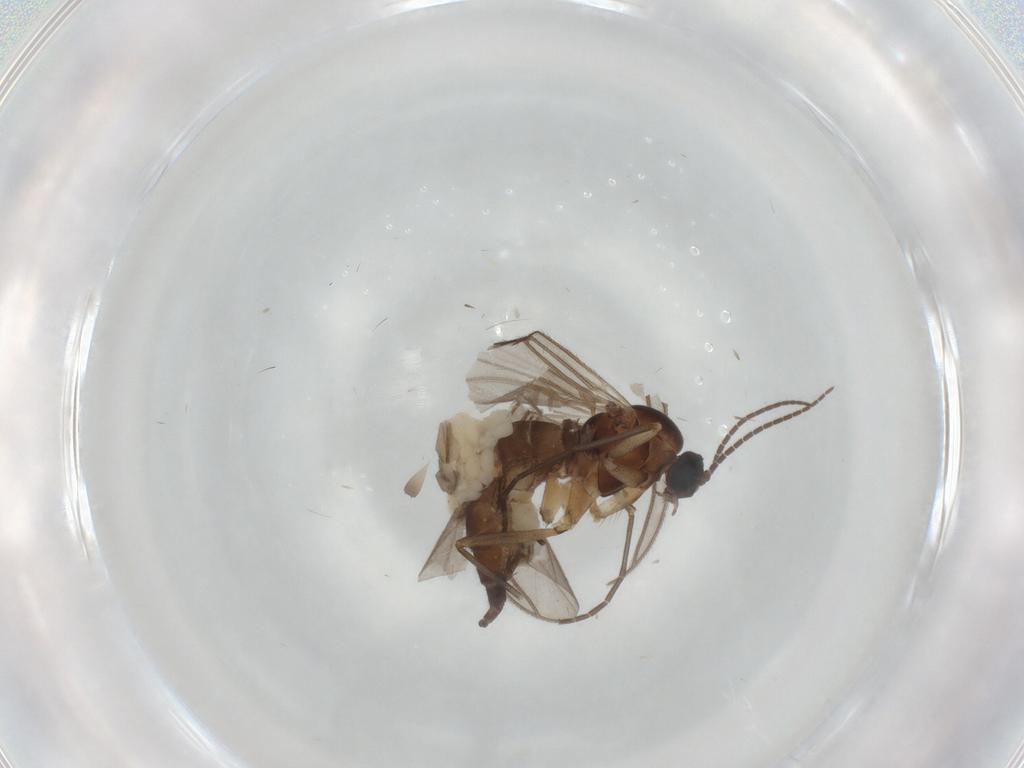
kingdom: Animalia
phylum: Arthropoda
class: Insecta
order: Diptera
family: Sciaridae
